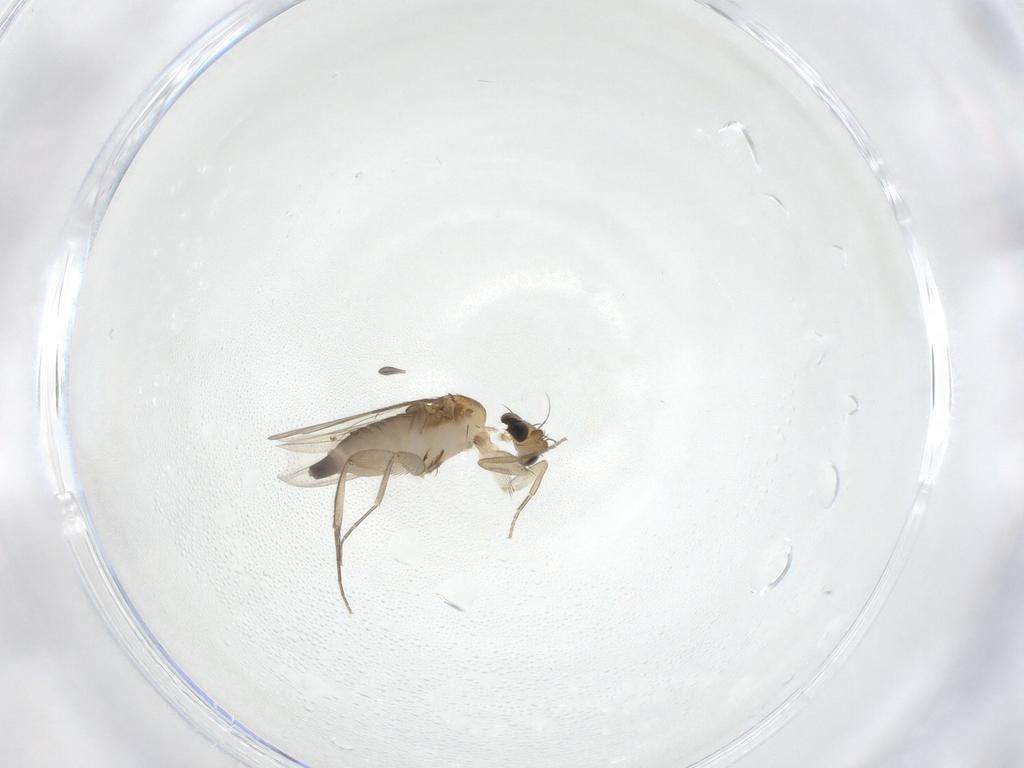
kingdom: Animalia
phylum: Arthropoda
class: Insecta
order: Diptera
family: Phoridae
